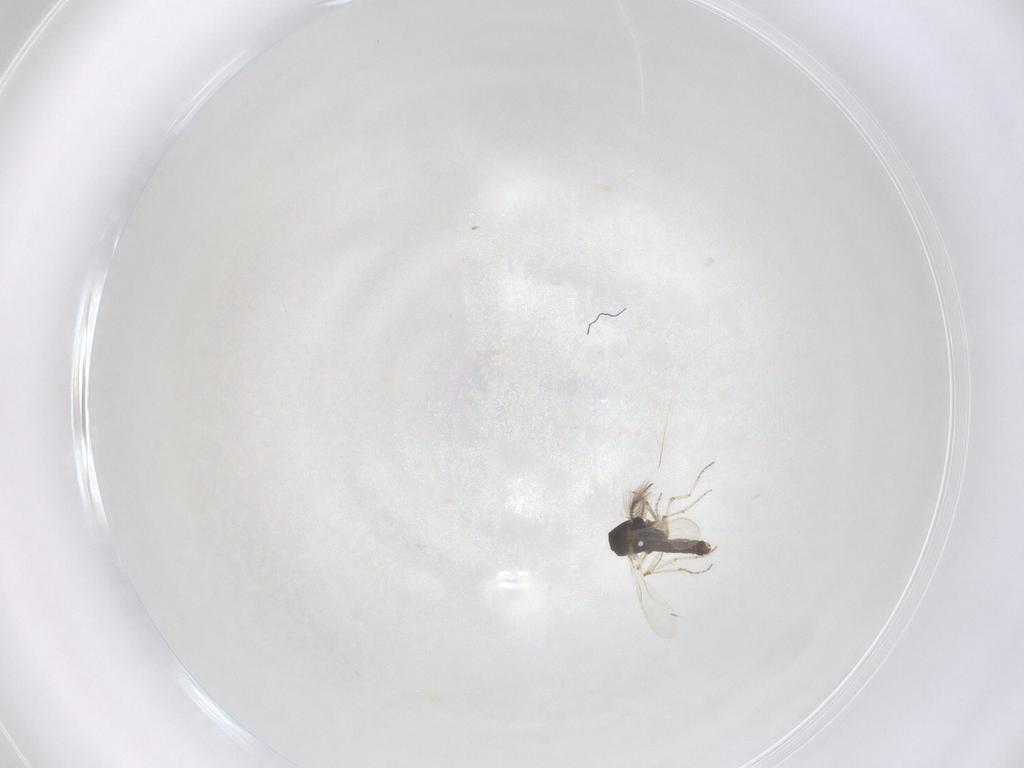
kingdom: Animalia
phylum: Arthropoda
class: Insecta
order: Diptera
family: Ceratopogonidae
